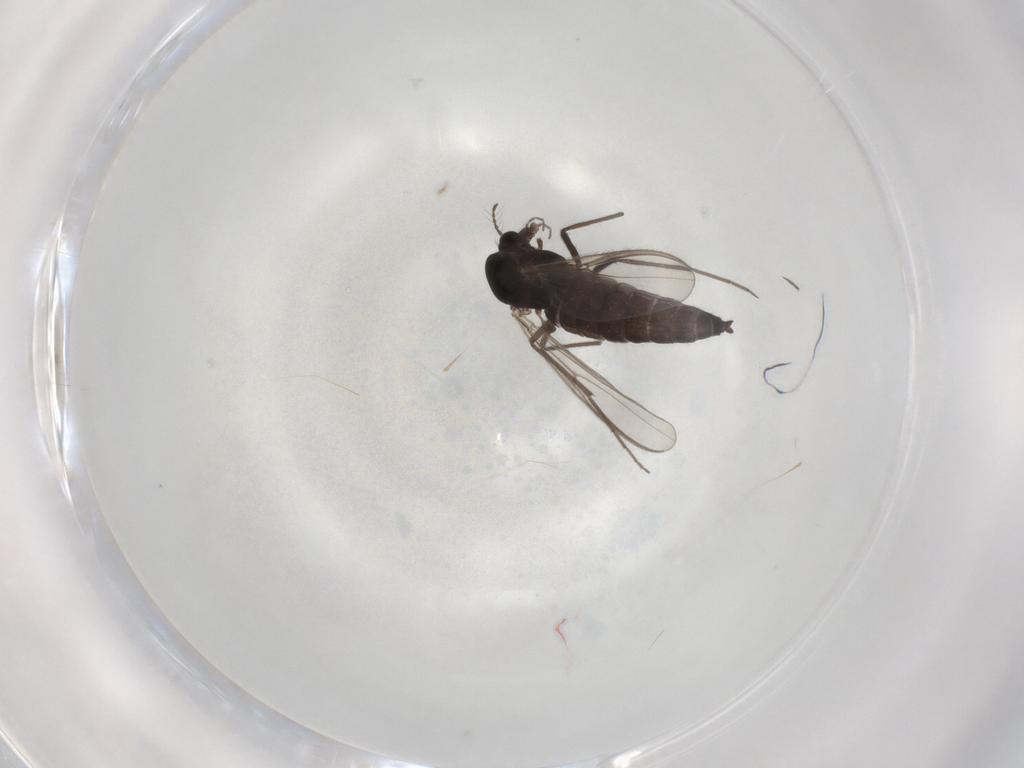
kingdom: Animalia
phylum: Arthropoda
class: Insecta
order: Diptera
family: Chironomidae
